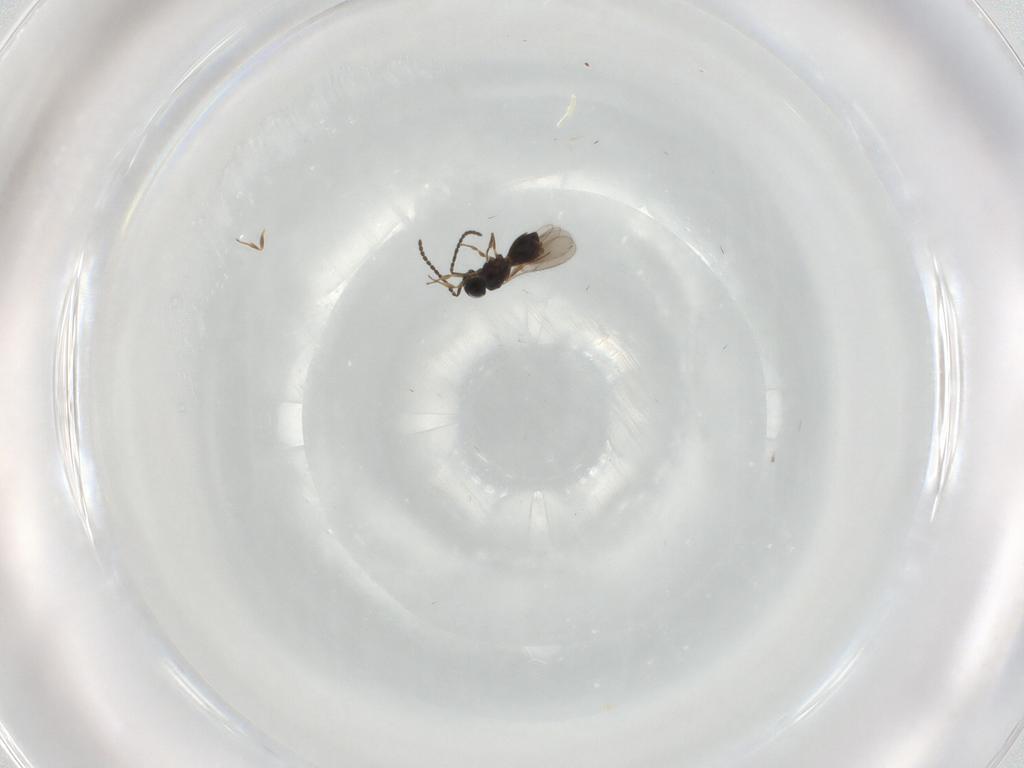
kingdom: Animalia
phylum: Arthropoda
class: Insecta
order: Hymenoptera
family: Scelionidae
